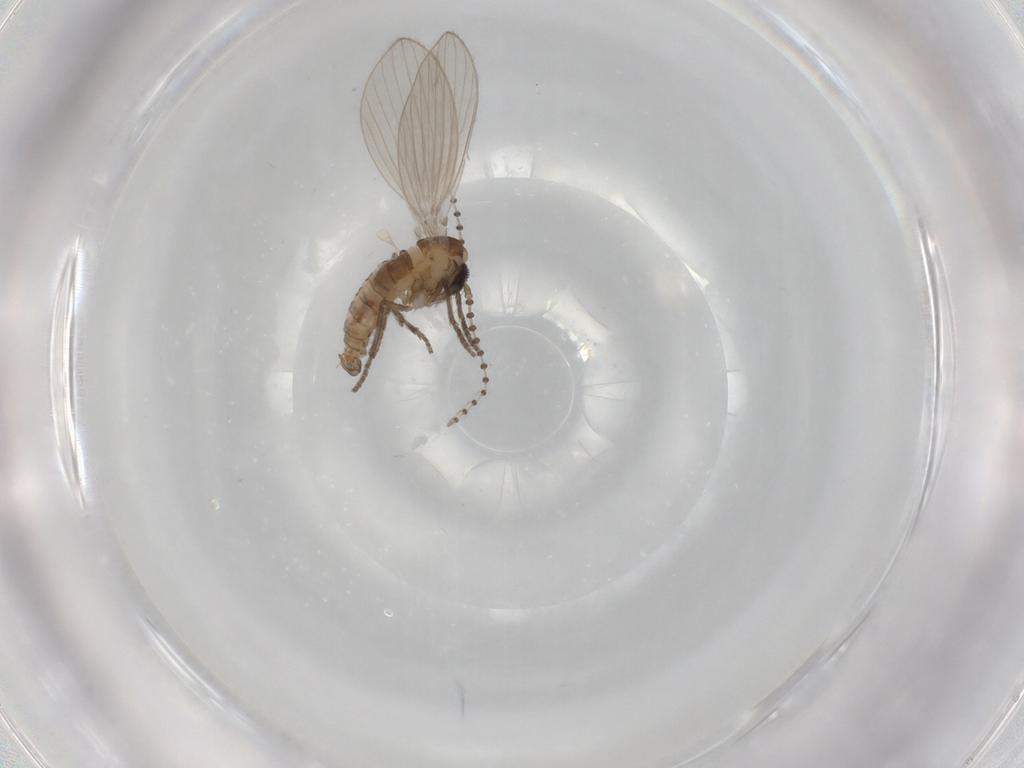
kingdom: Animalia
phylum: Arthropoda
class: Insecta
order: Diptera
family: Psychodidae
